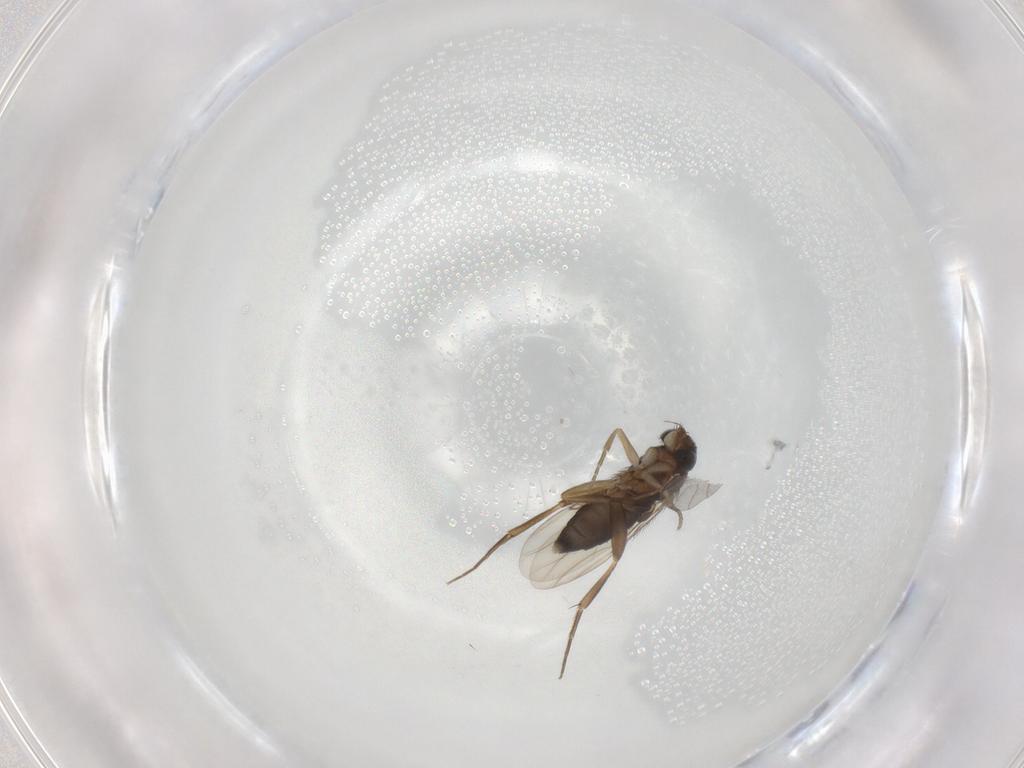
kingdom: Animalia
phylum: Arthropoda
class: Insecta
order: Diptera
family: Phoridae
